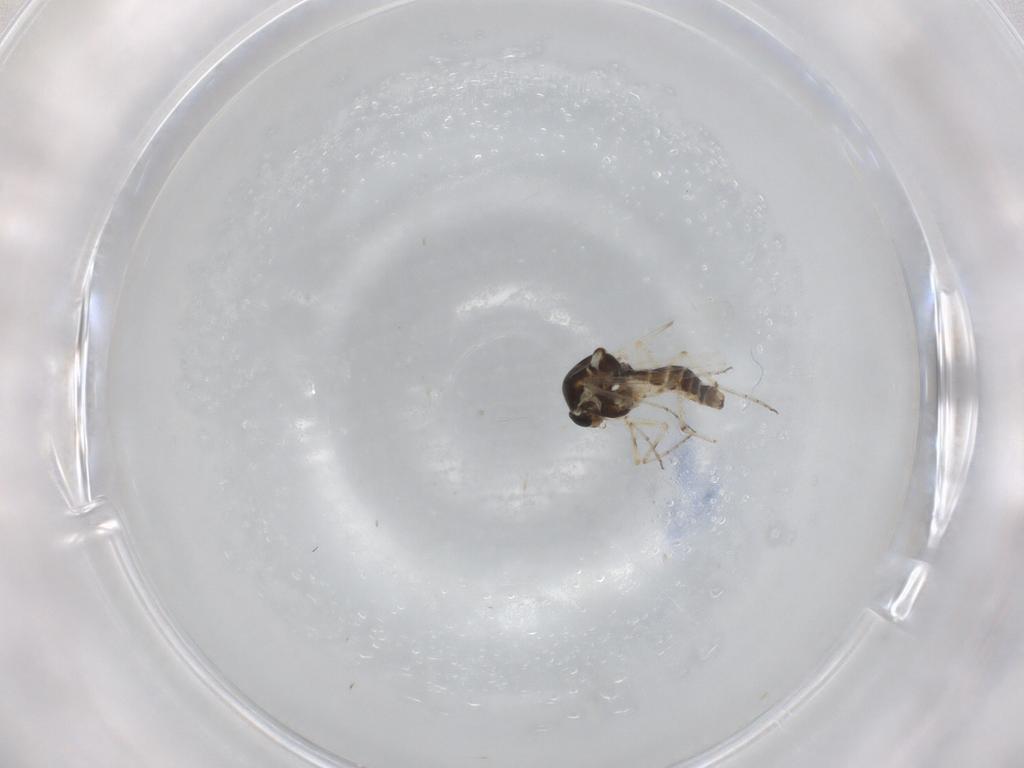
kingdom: Animalia
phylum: Arthropoda
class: Insecta
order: Diptera
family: Ceratopogonidae
